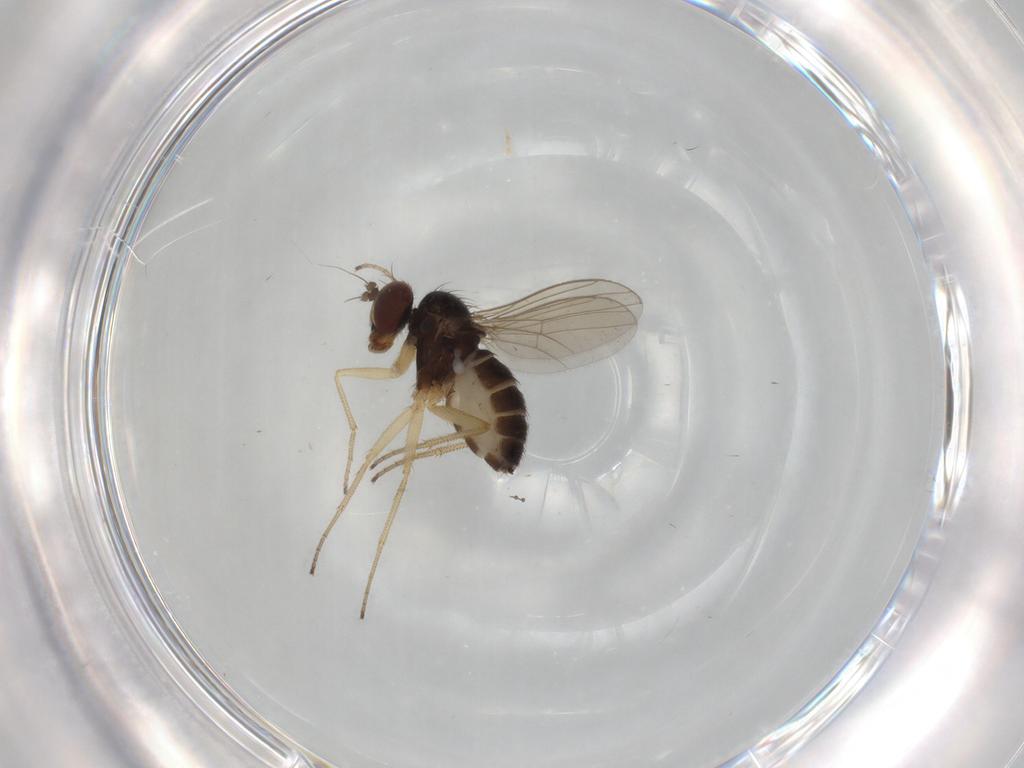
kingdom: Animalia
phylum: Arthropoda
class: Insecta
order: Diptera
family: Dolichopodidae
